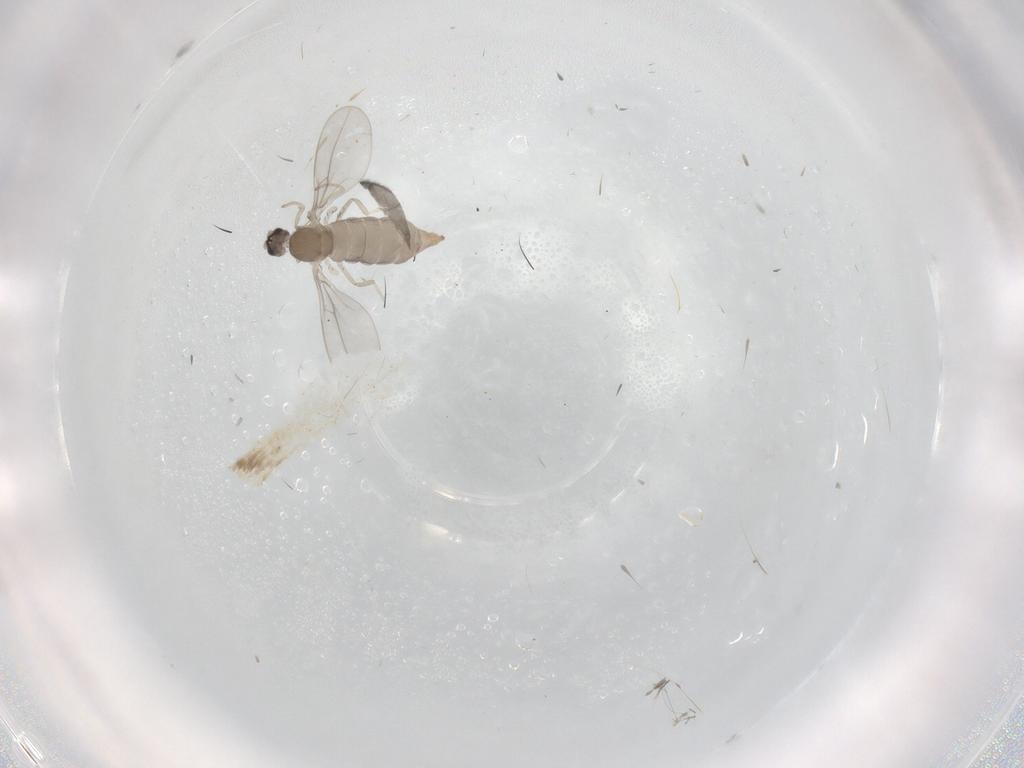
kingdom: Animalia
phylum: Arthropoda
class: Insecta
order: Diptera
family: Cecidomyiidae
